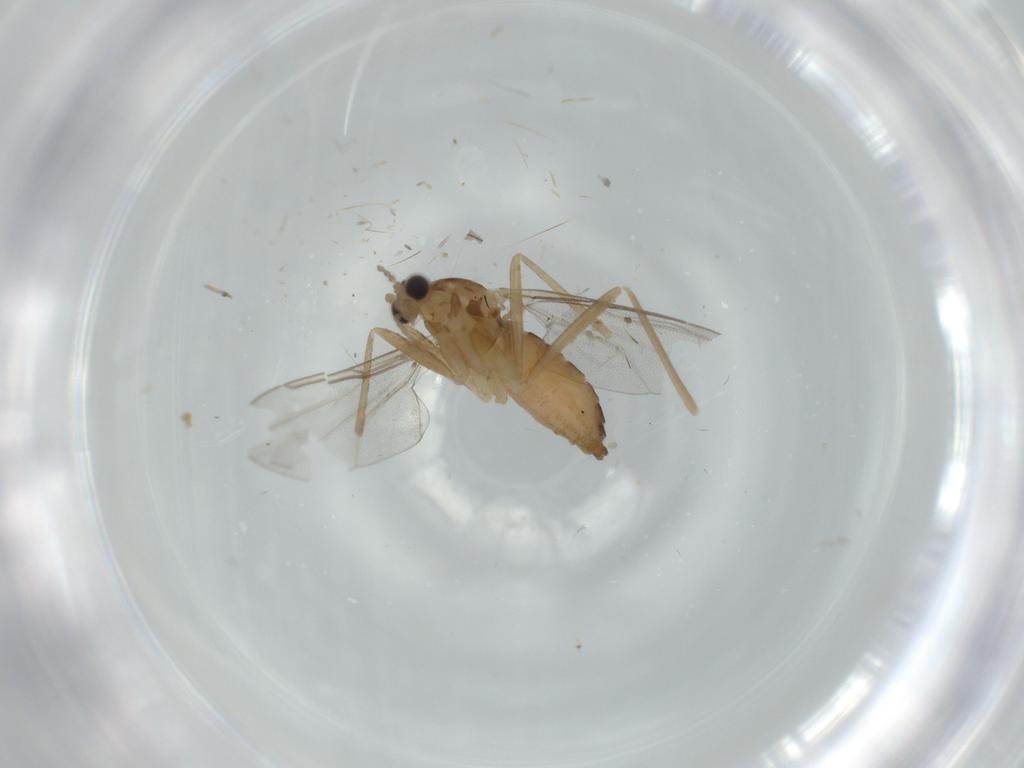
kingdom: Animalia
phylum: Arthropoda
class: Insecta
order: Diptera
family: Cecidomyiidae
